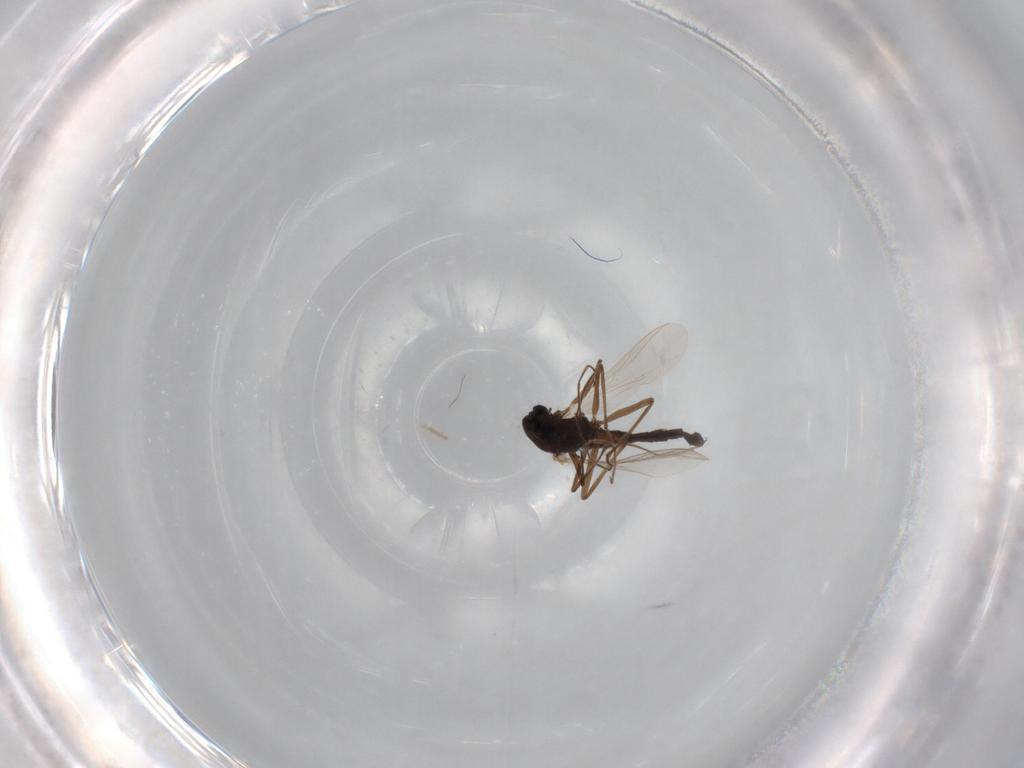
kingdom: Animalia
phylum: Arthropoda
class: Insecta
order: Diptera
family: Chironomidae
